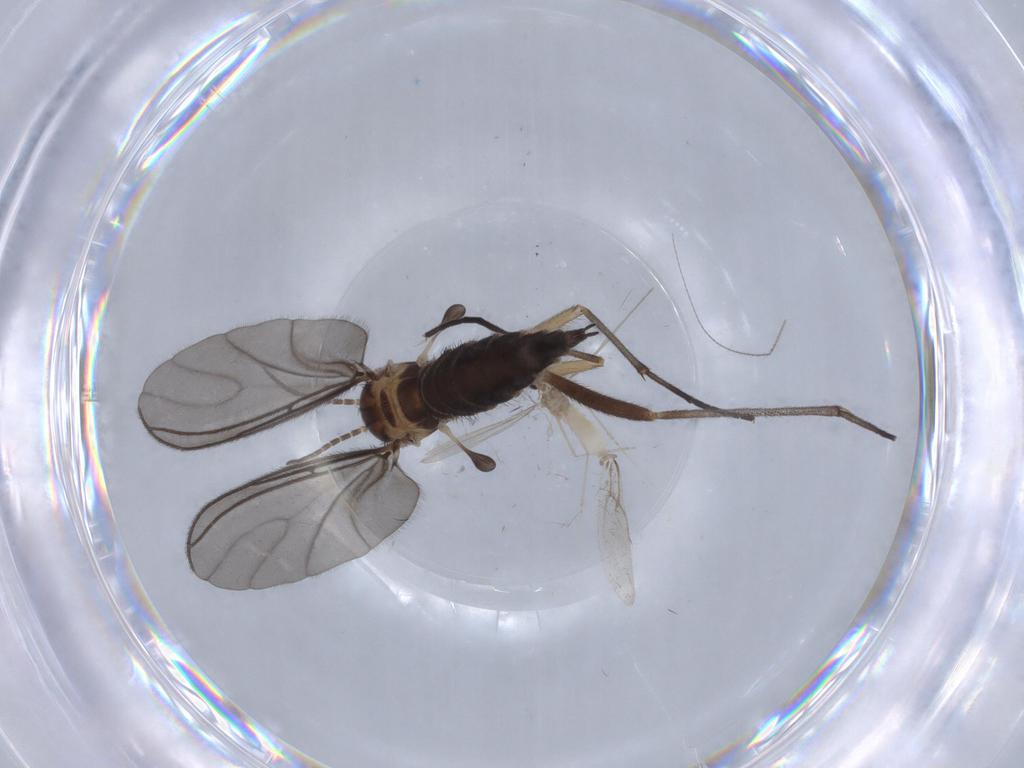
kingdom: Animalia
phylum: Arthropoda
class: Insecta
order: Diptera
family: Sciaridae
